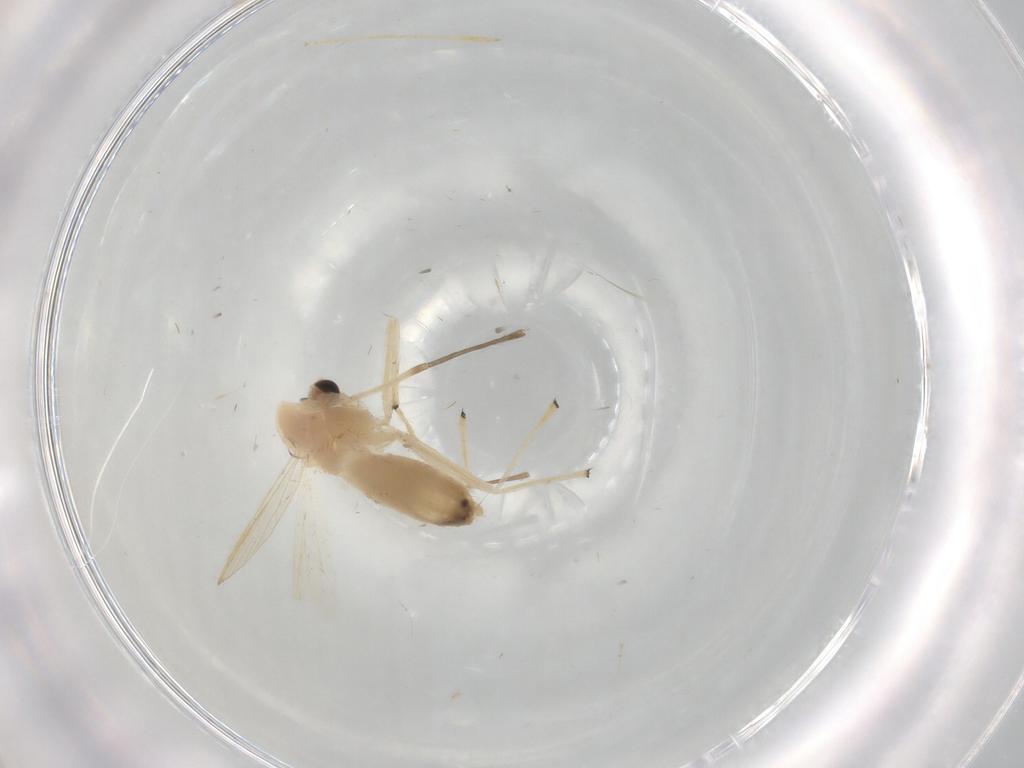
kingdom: Animalia
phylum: Arthropoda
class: Insecta
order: Diptera
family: Chironomidae
